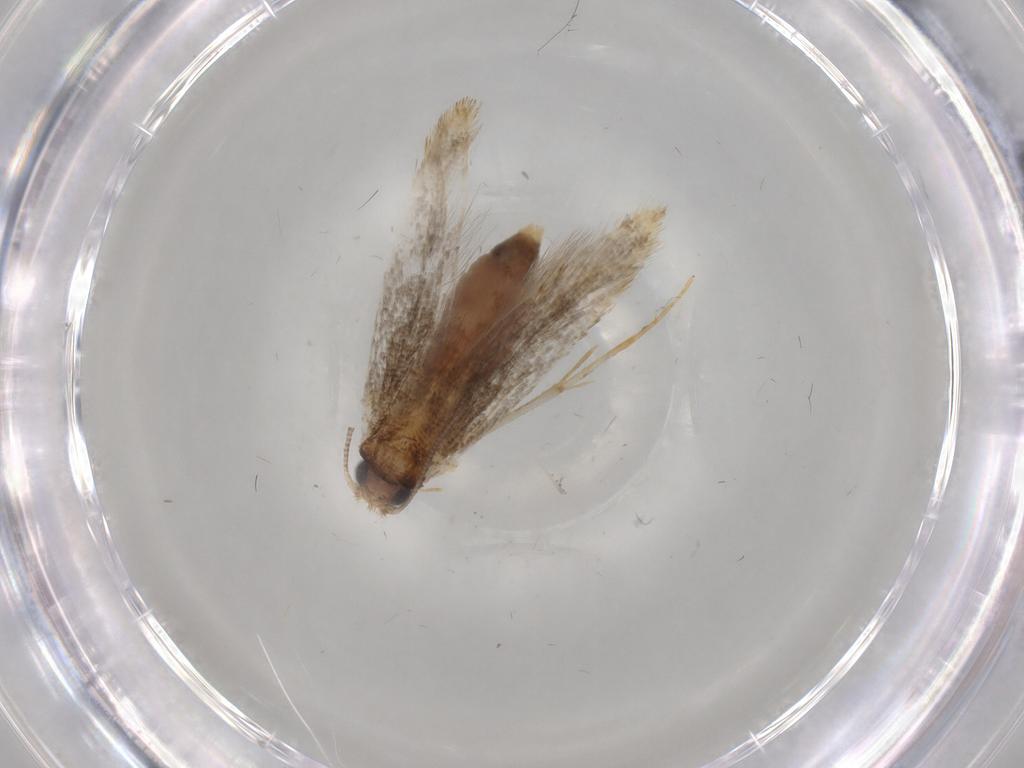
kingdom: Animalia
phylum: Arthropoda
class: Insecta
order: Lepidoptera
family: Tineidae
